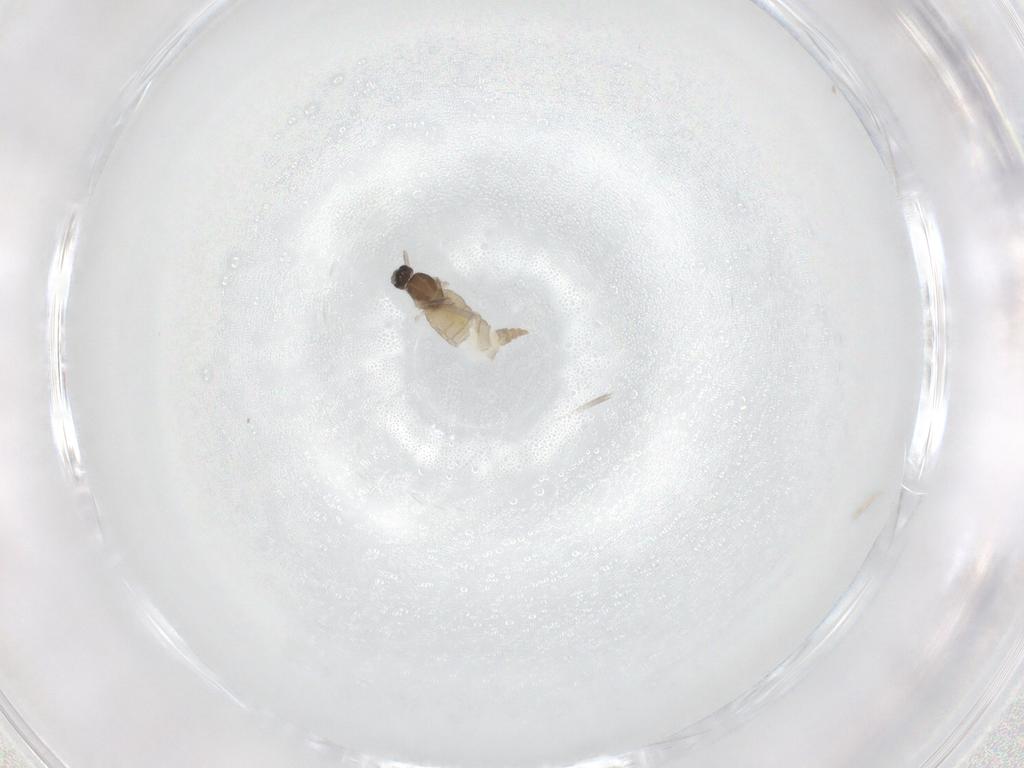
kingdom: Animalia
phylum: Arthropoda
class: Insecta
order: Diptera
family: Cecidomyiidae
